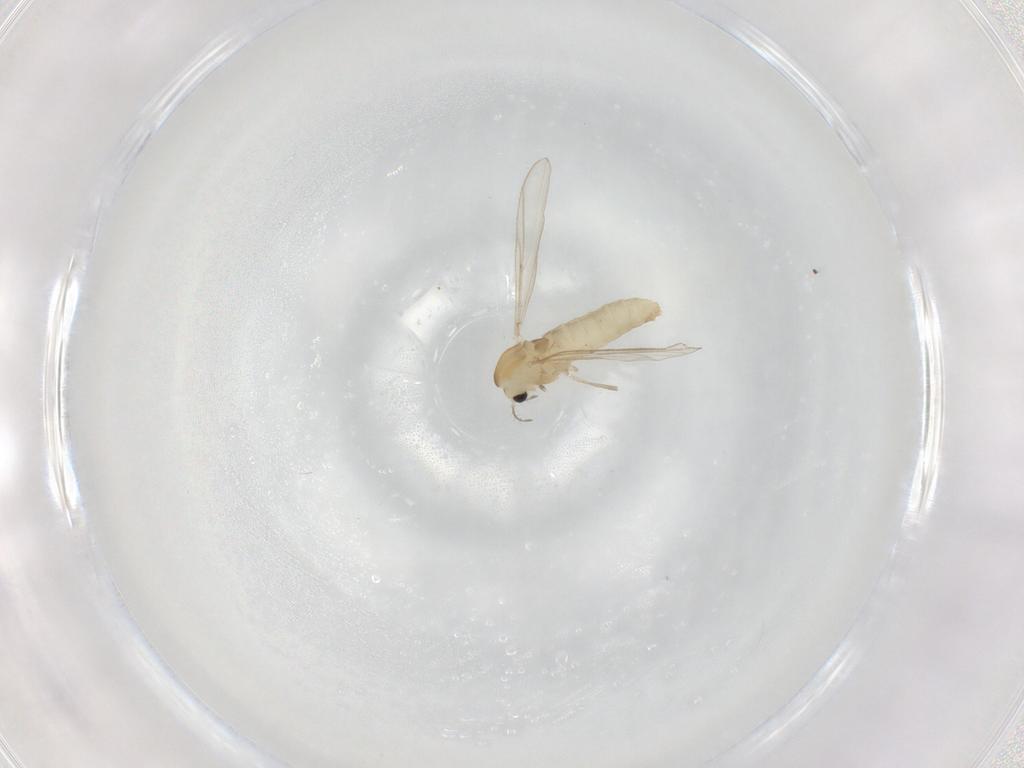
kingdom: Animalia
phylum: Arthropoda
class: Insecta
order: Diptera
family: Chironomidae
